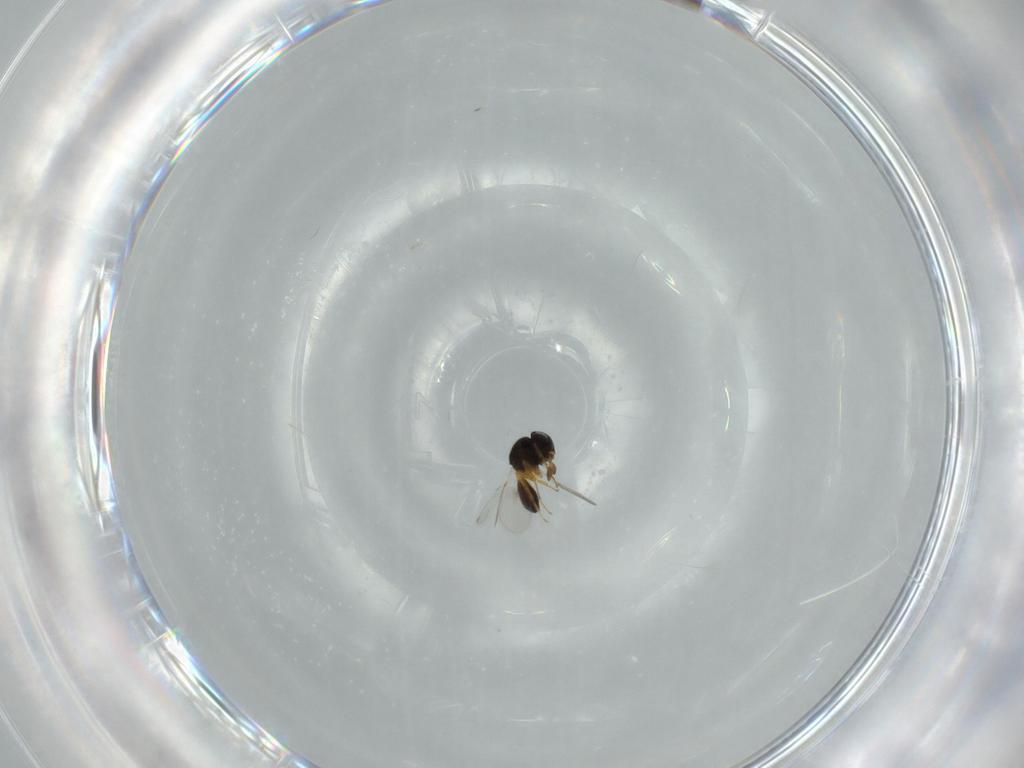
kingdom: Animalia
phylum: Arthropoda
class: Insecta
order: Hymenoptera
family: Scelionidae
